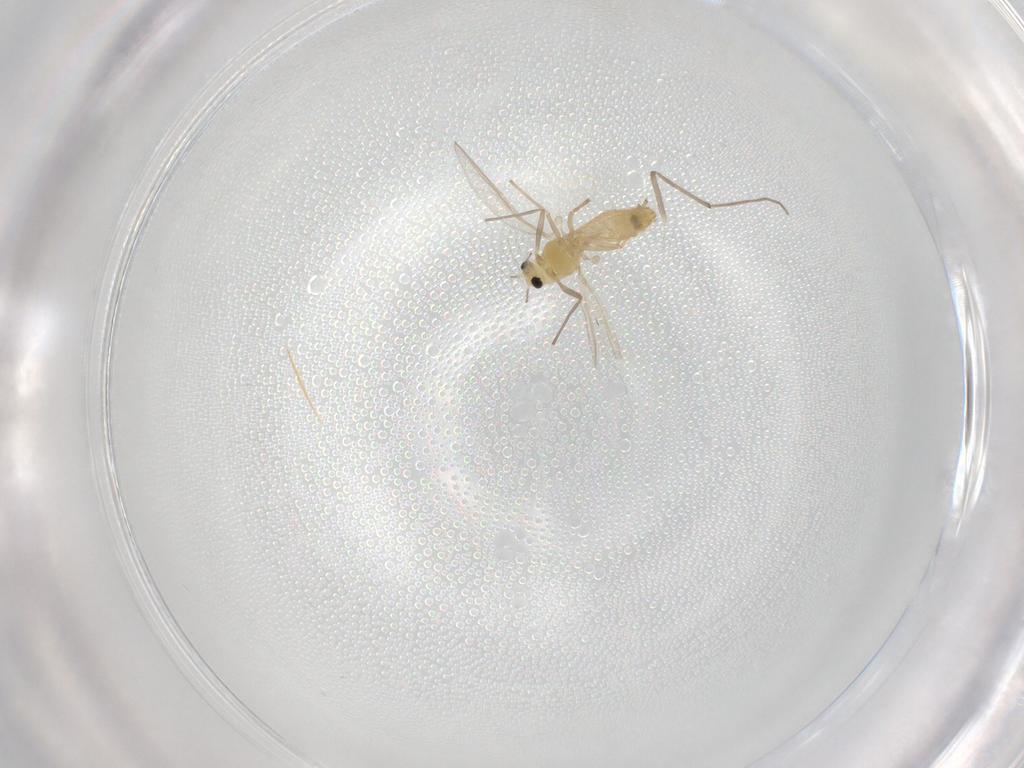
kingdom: Animalia
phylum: Arthropoda
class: Insecta
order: Diptera
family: Chironomidae
